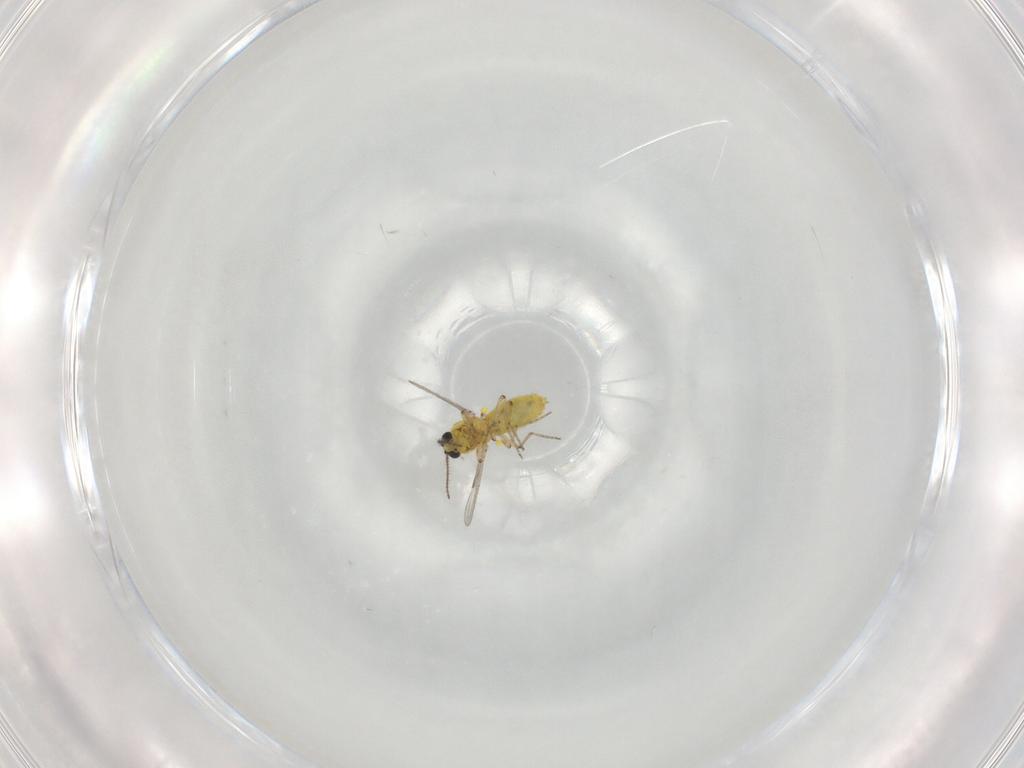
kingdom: Animalia
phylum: Arthropoda
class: Insecta
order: Diptera
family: Ceratopogonidae
